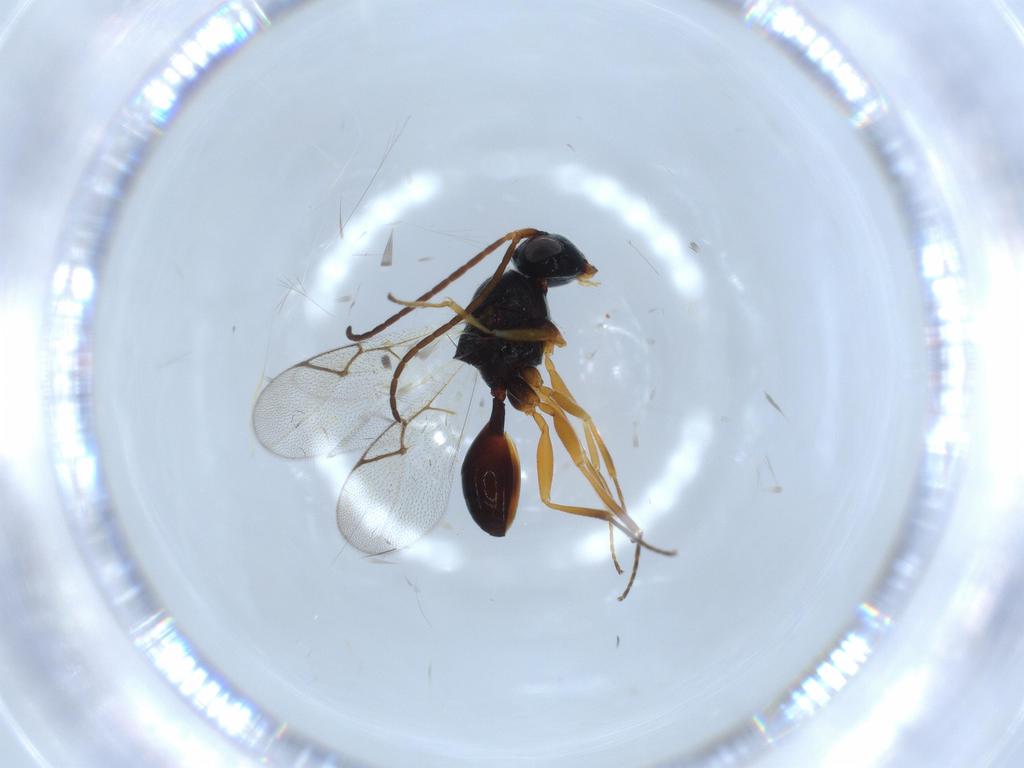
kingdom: Animalia
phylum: Arthropoda
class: Insecta
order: Hymenoptera
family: Figitidae
